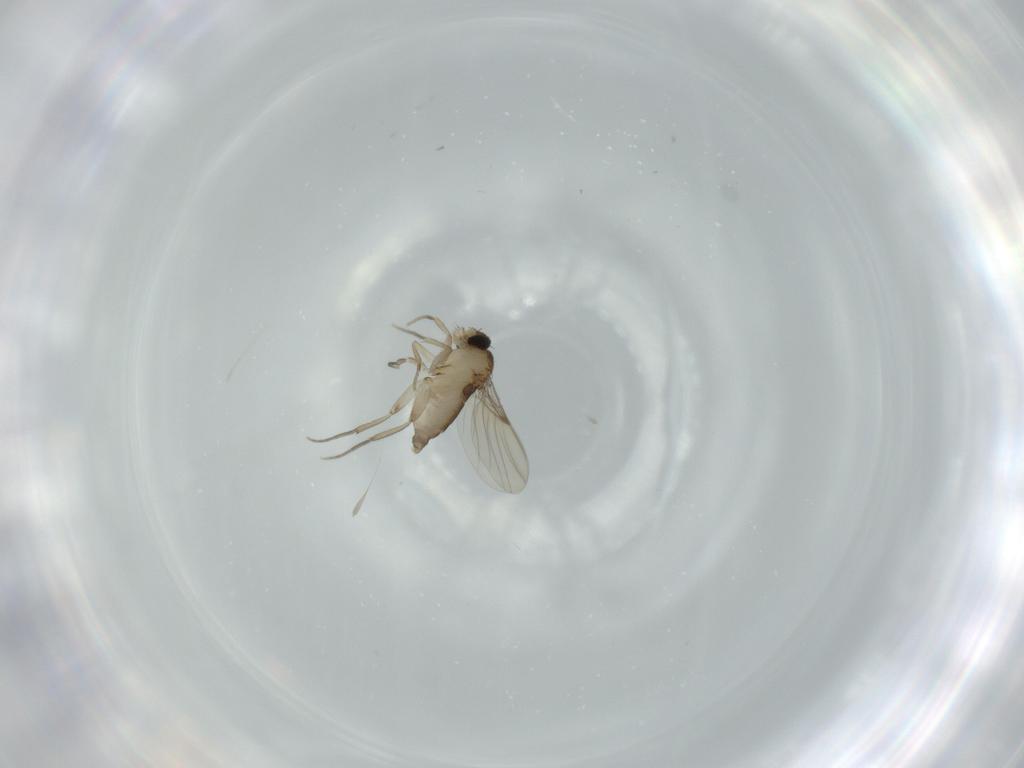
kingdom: Animalia
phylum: Arthropoda
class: Insecta
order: Diptera
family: Phoridae
